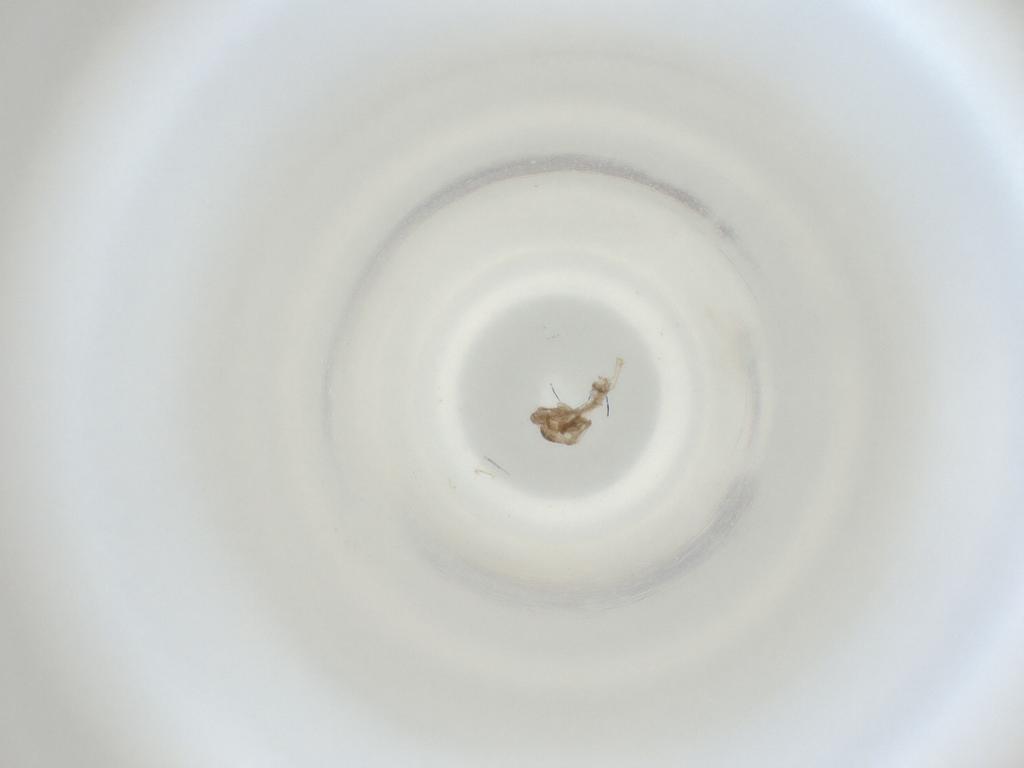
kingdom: Animalia
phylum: Arthropoda
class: Insecta
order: Diptera
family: Cecidomyiidae
